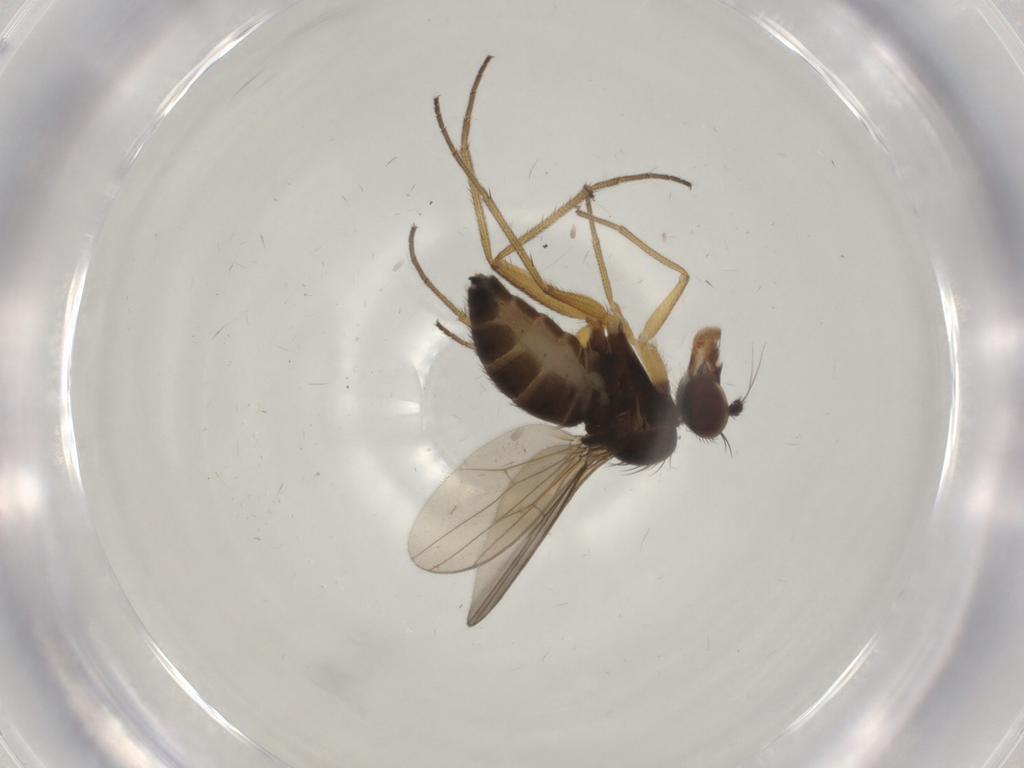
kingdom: Animalia
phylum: Arthropoda
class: Insecta
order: Diptera
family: Dolichopodidae
